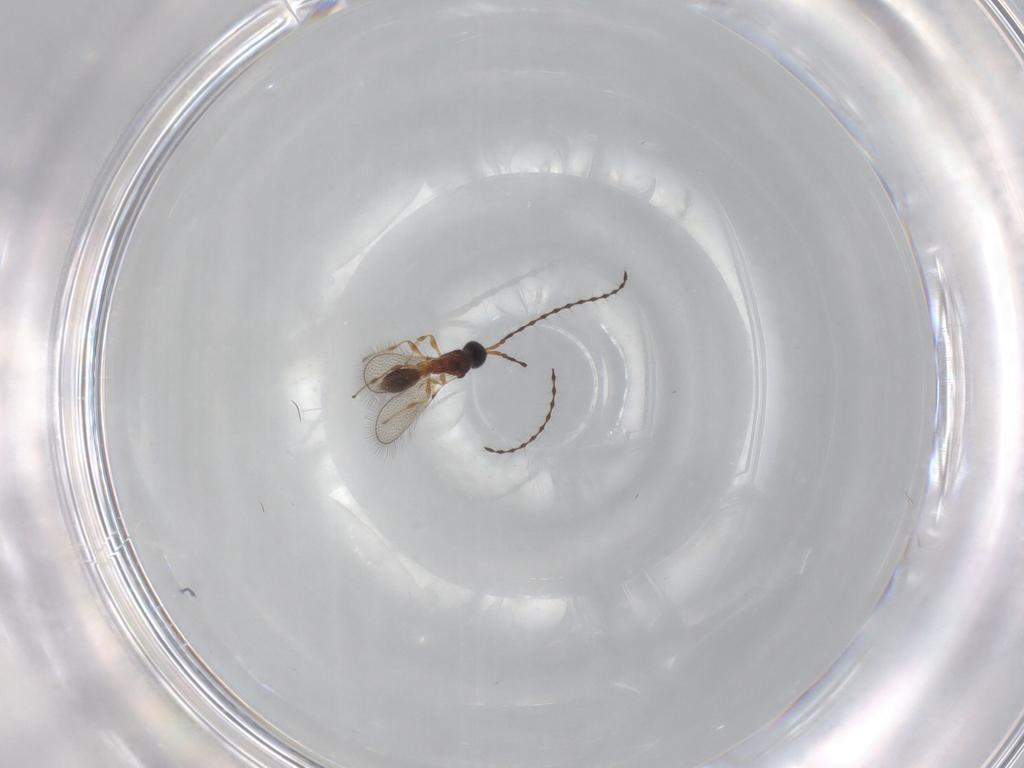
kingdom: Animalia
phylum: Arthropoda
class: Insecta
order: Hymenoptera
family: Diapriidae
